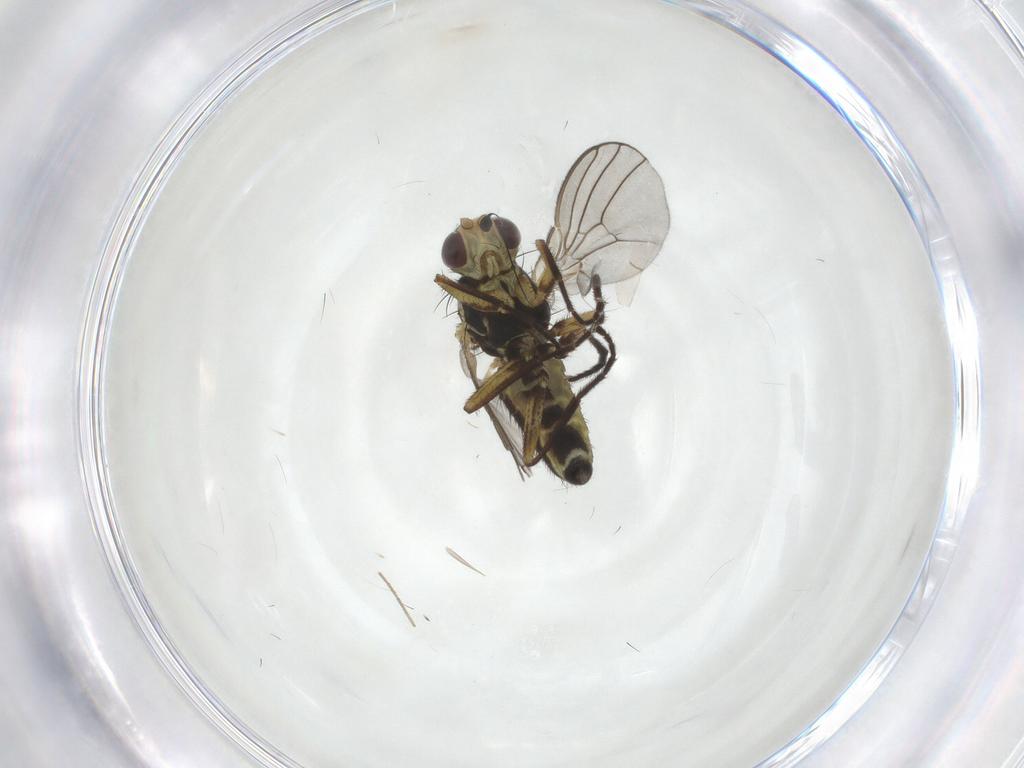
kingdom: Animalia
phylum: Arthropoda
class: Insecta
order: Diptera
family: Agromyzidae
